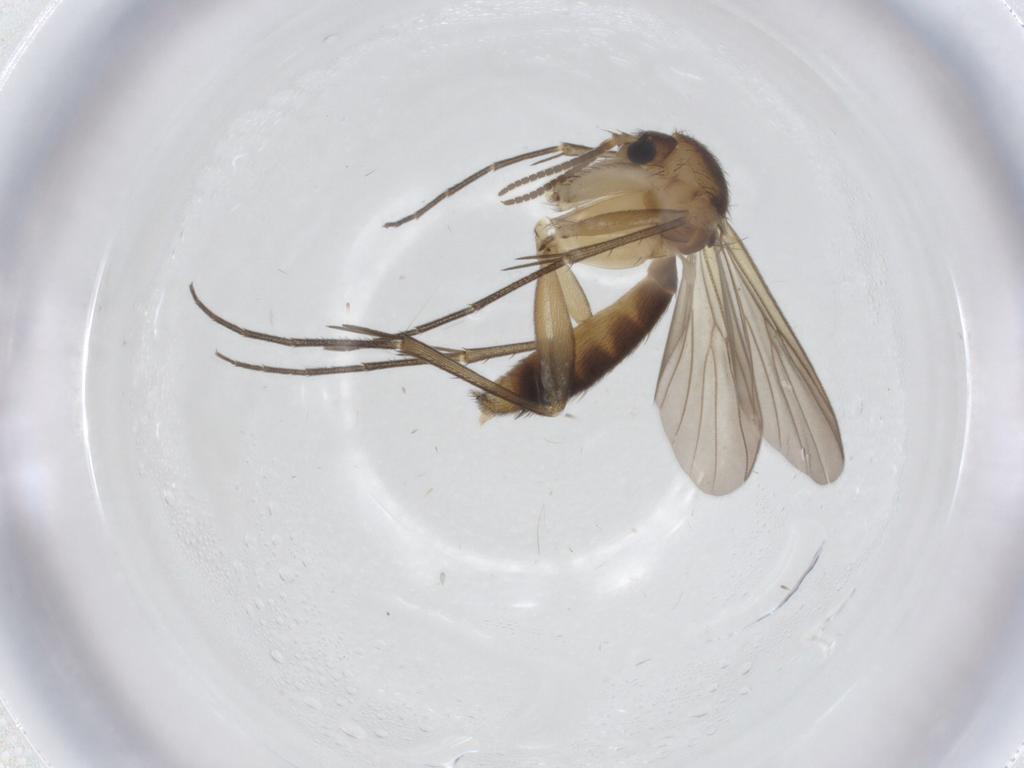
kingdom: Animalia
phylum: Arthropoda
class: Insecta
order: Diptera
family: Mycetophilidae
